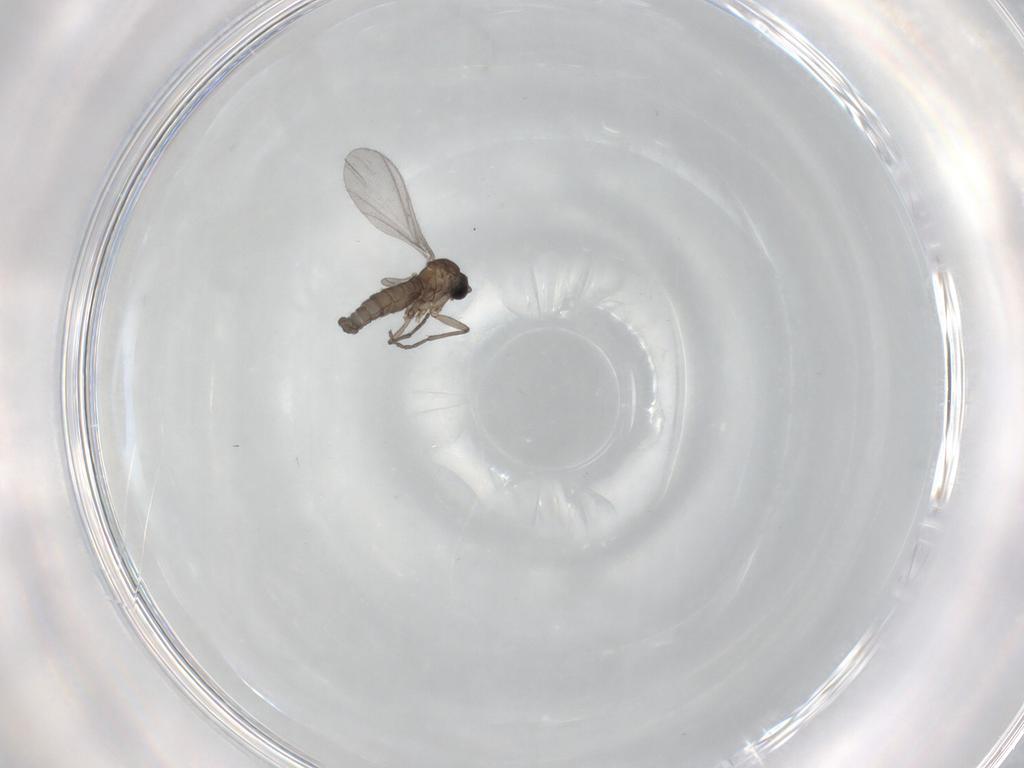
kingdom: Animalia
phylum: Arthropoda
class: Insecta
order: Diptera
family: Sciaridae
